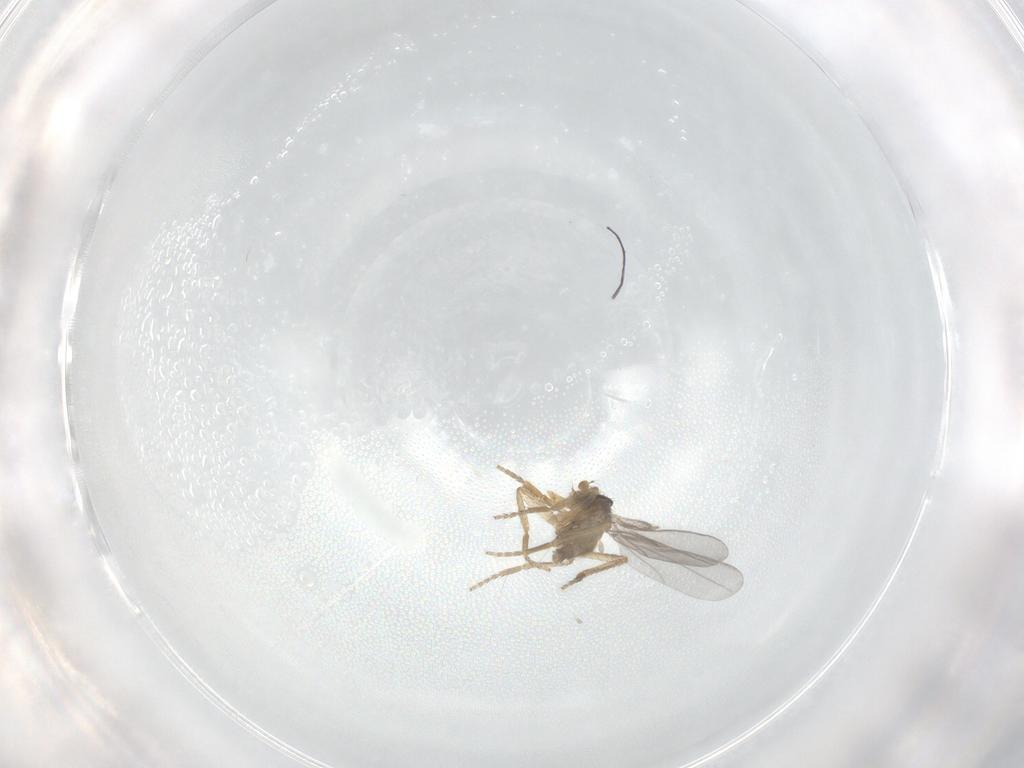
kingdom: Animalia
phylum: Arthropoda
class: Insecta
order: Diptera
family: Phoridae
